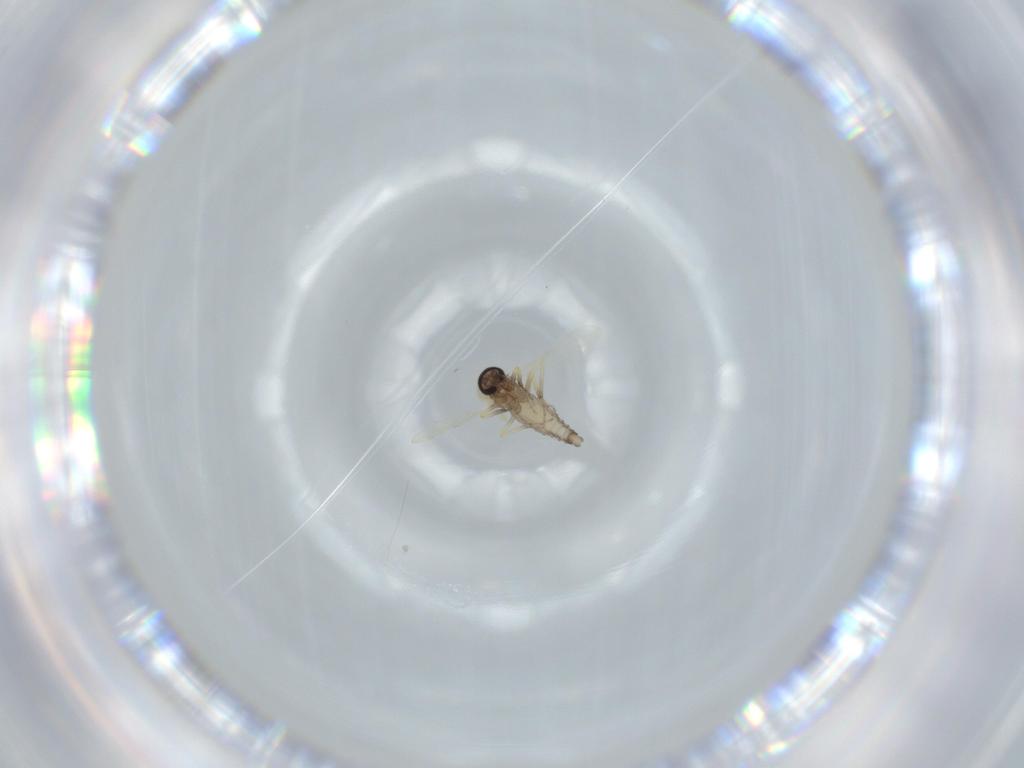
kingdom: Animalia
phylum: Arthropoda
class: Insecta
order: Diptera
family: Ceratopogonidae
